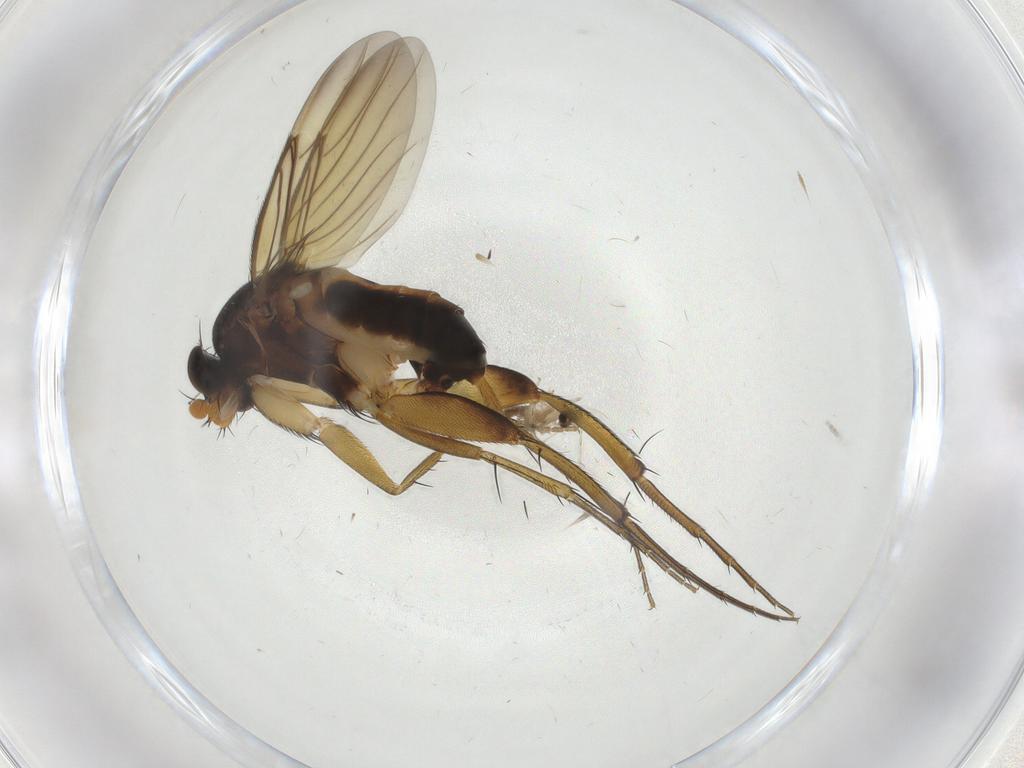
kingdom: Animalia
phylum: Arthropoda
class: Insecta
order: Diptera
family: Phoridae
